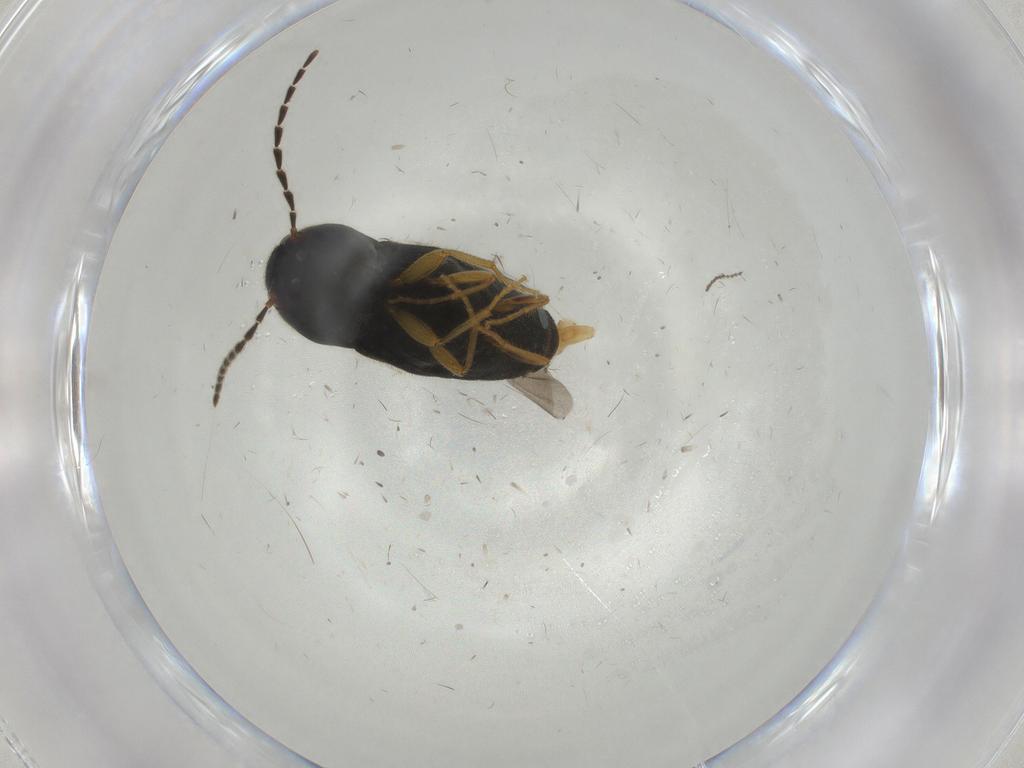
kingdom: Animalia
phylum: Arthropoda
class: Insecta
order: Coleoptera
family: Elateridae
